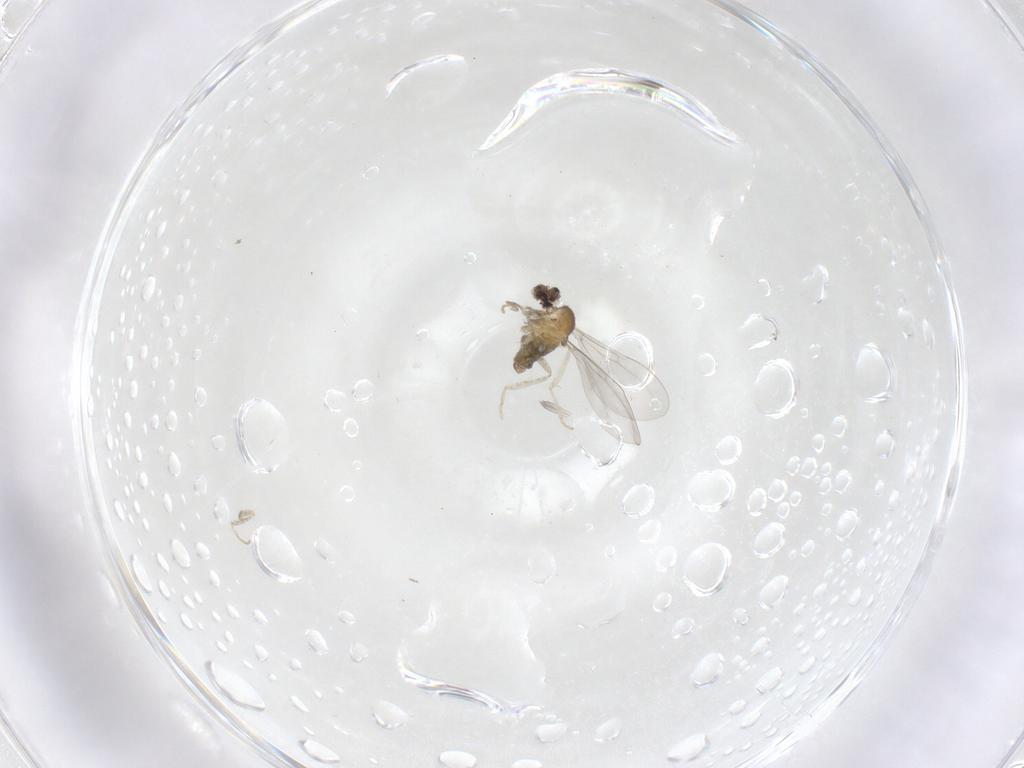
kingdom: Animalia
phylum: Arthropoda
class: Insecta
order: Diptera
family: Cecidomyiidae
